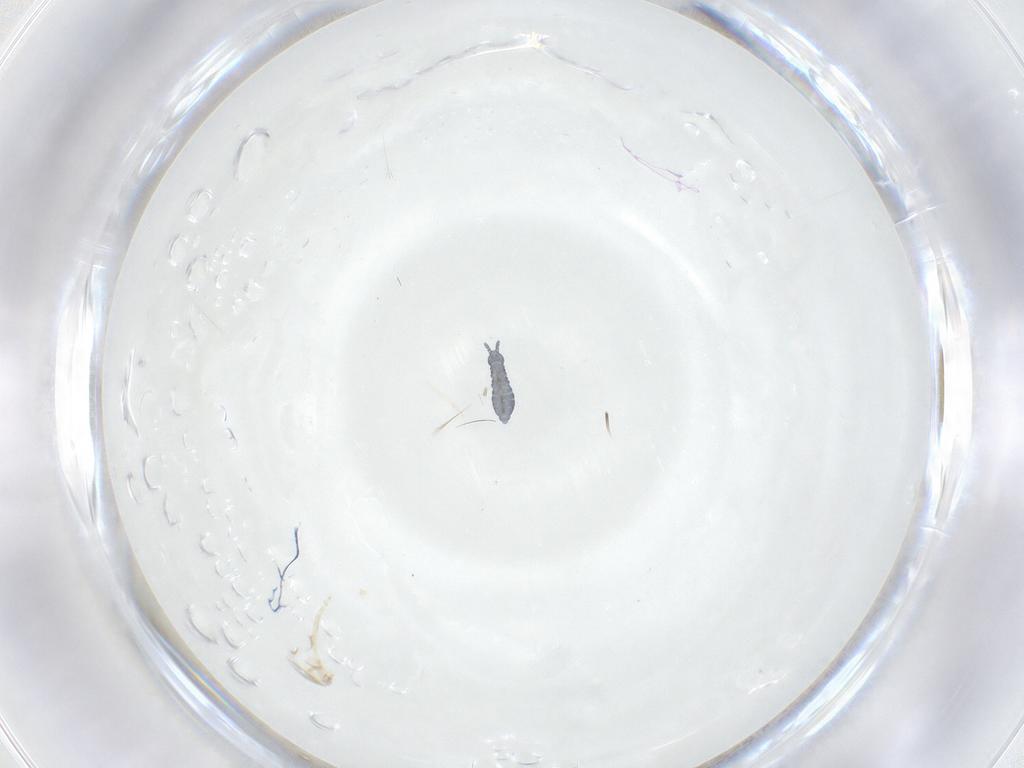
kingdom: Animalia
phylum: Arthropoda
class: Collembola
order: Poduromorpha
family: Hypogastruridae
